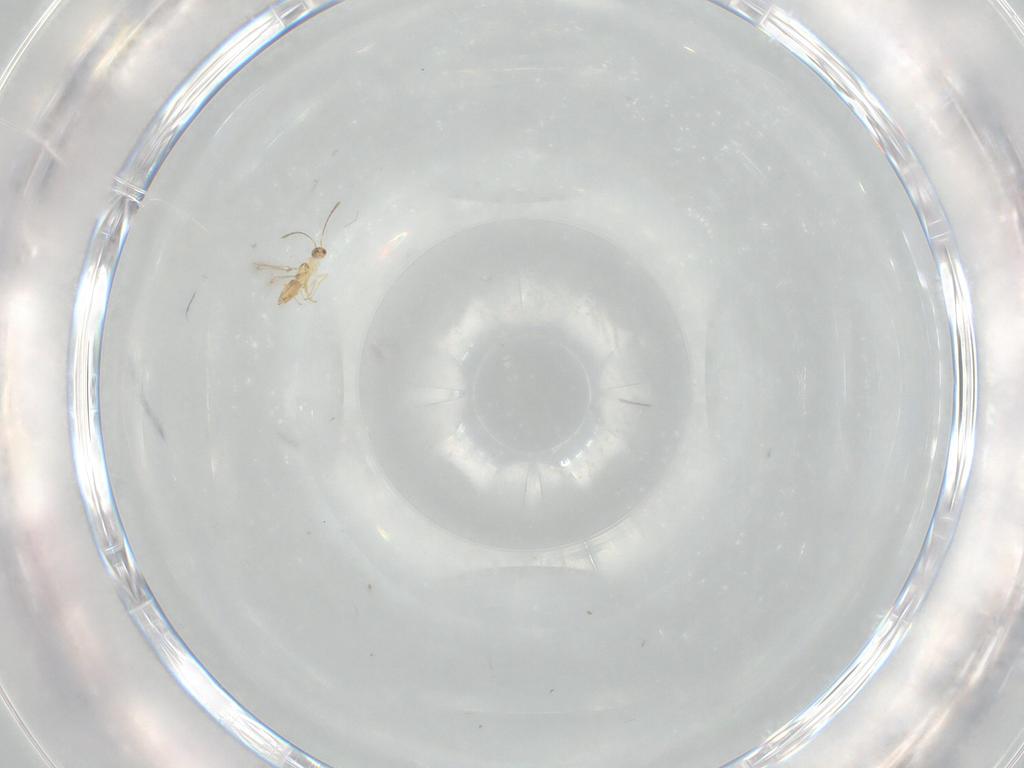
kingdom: Animalia
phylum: Arthropoda
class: Insecta
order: Hymenoptera
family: Mymaridae
